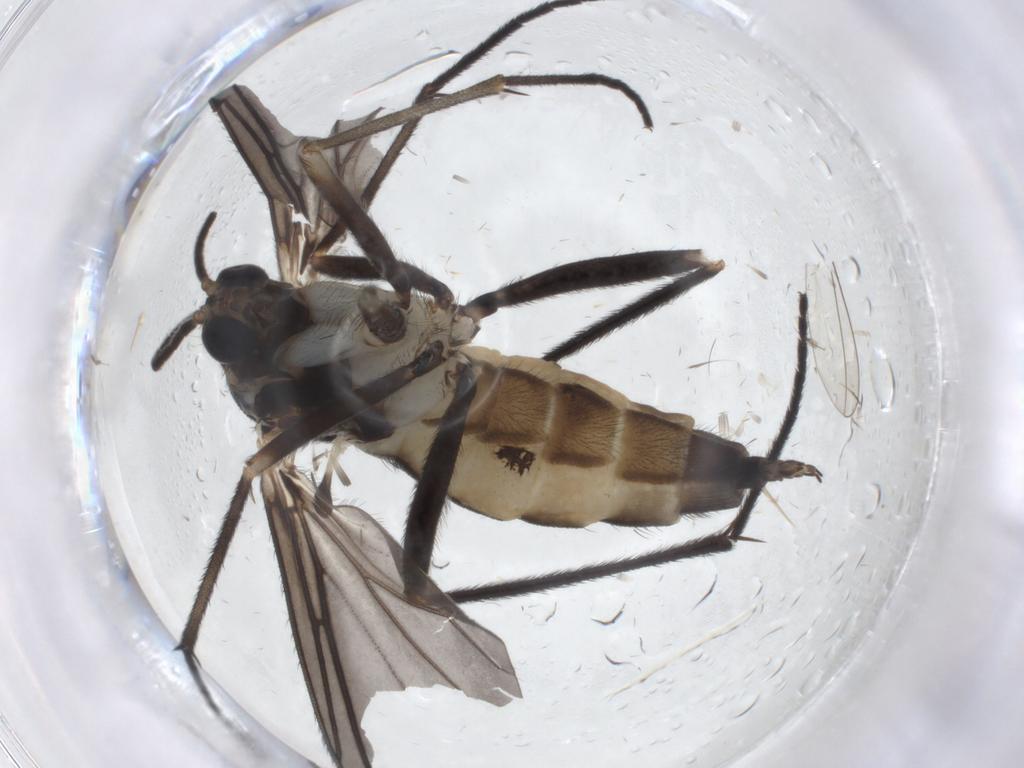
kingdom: Animalia
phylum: Arthropoda
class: Insecta
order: Diptera
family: Sciaridae
